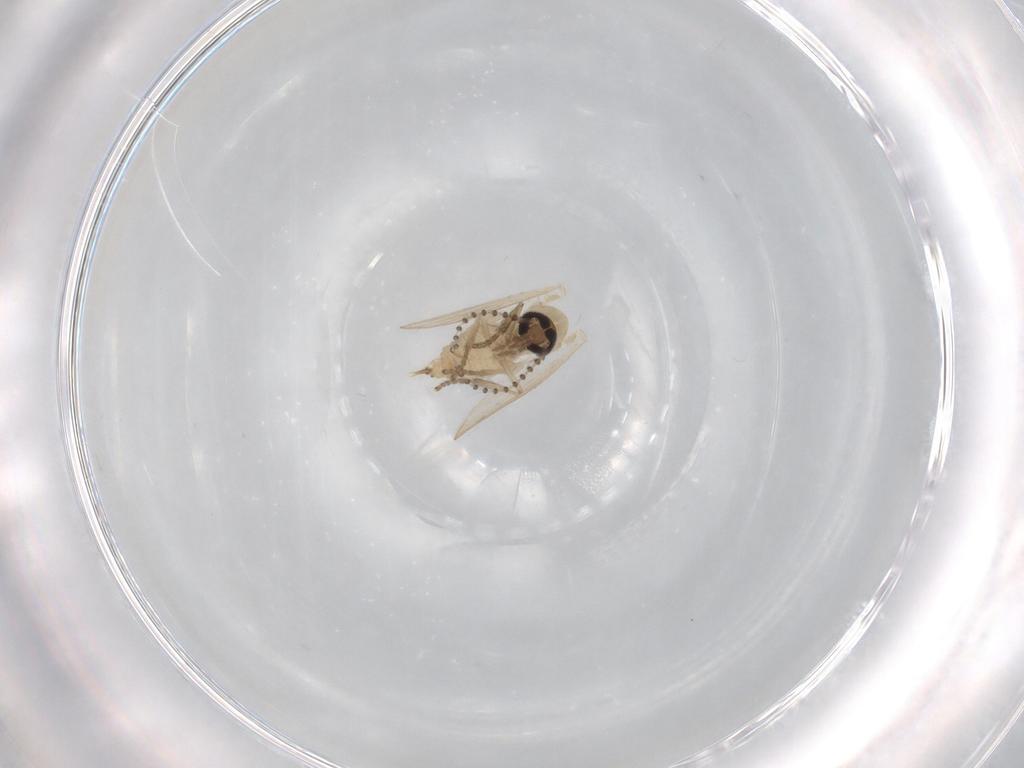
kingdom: Animalia
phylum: Arthropoda
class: Insecta
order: Diptera
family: Psychodidae
